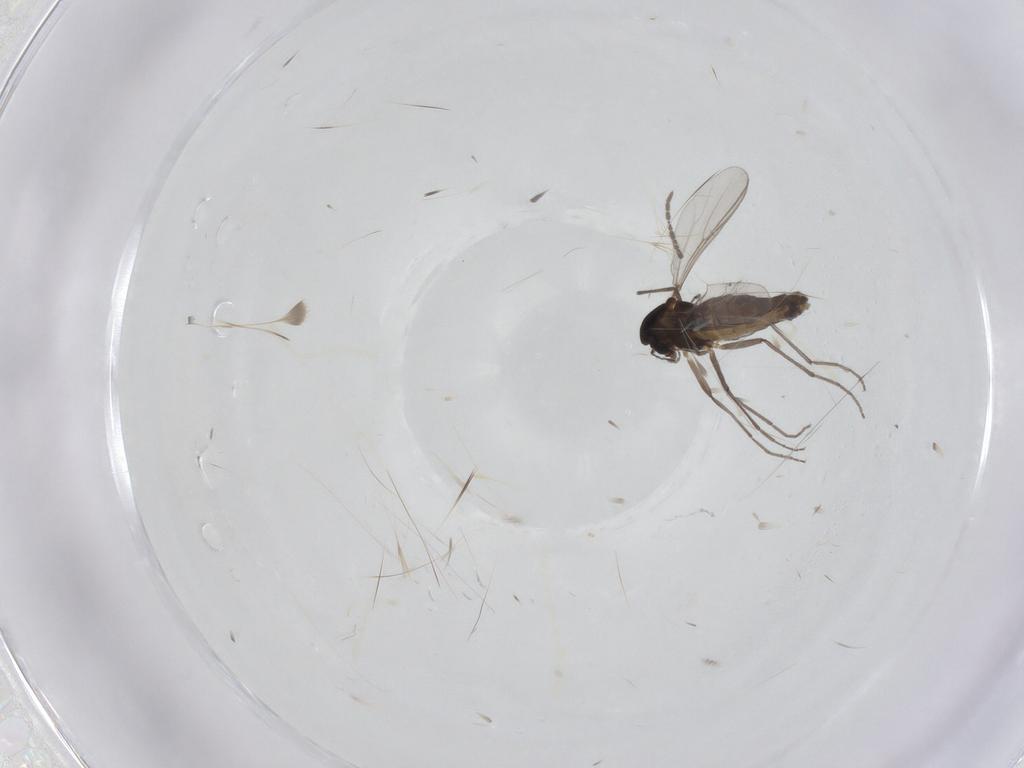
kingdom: Animalia
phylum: Arthropoda
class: Insecta
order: Diptera
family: Chironomidae
